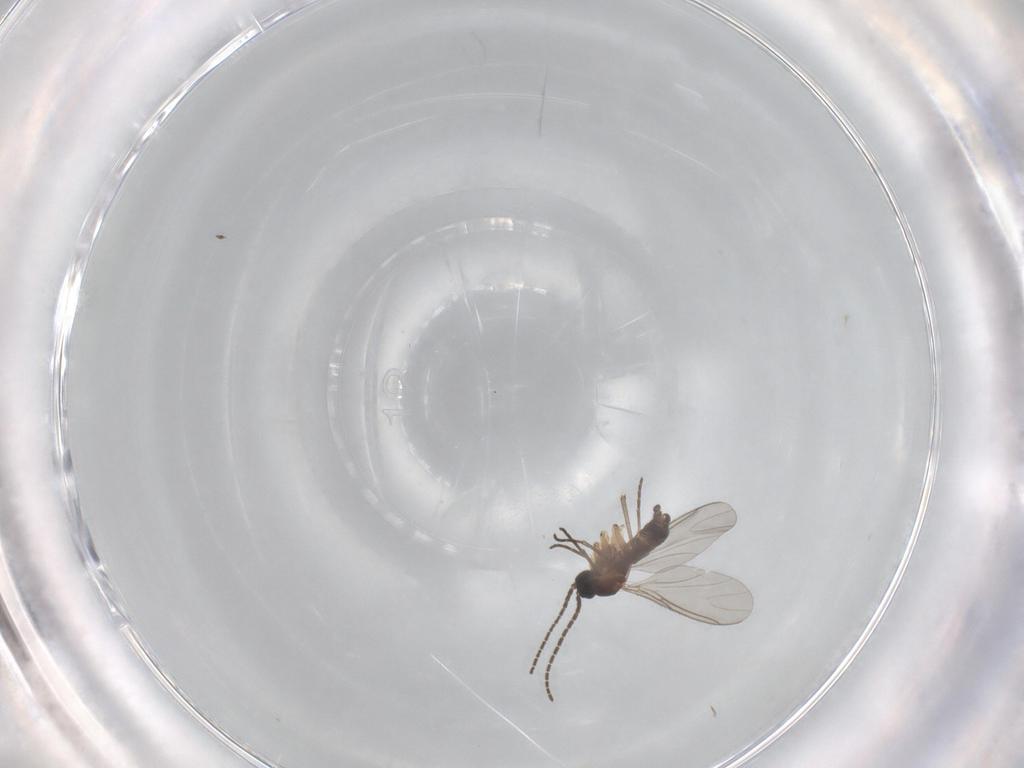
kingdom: Animalia
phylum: Arthropoda
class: Insecta
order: Diptera
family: Sciaridae
